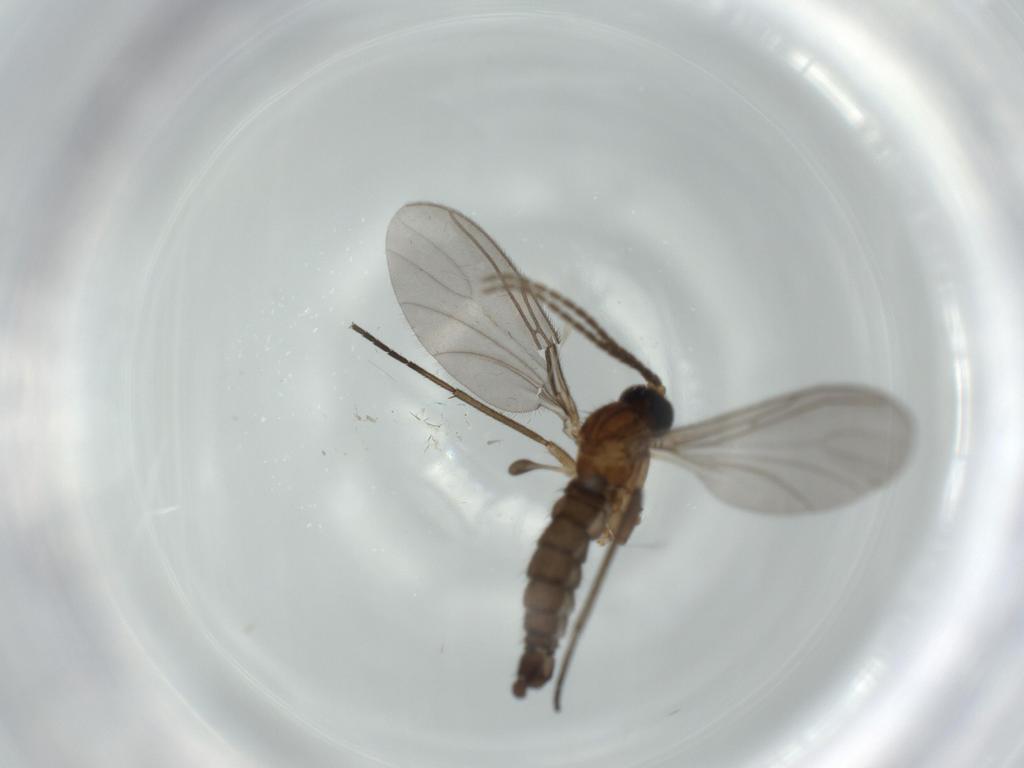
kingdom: Animalia
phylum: Arthropoda
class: Insecta
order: Diptera
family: Sciaridae
